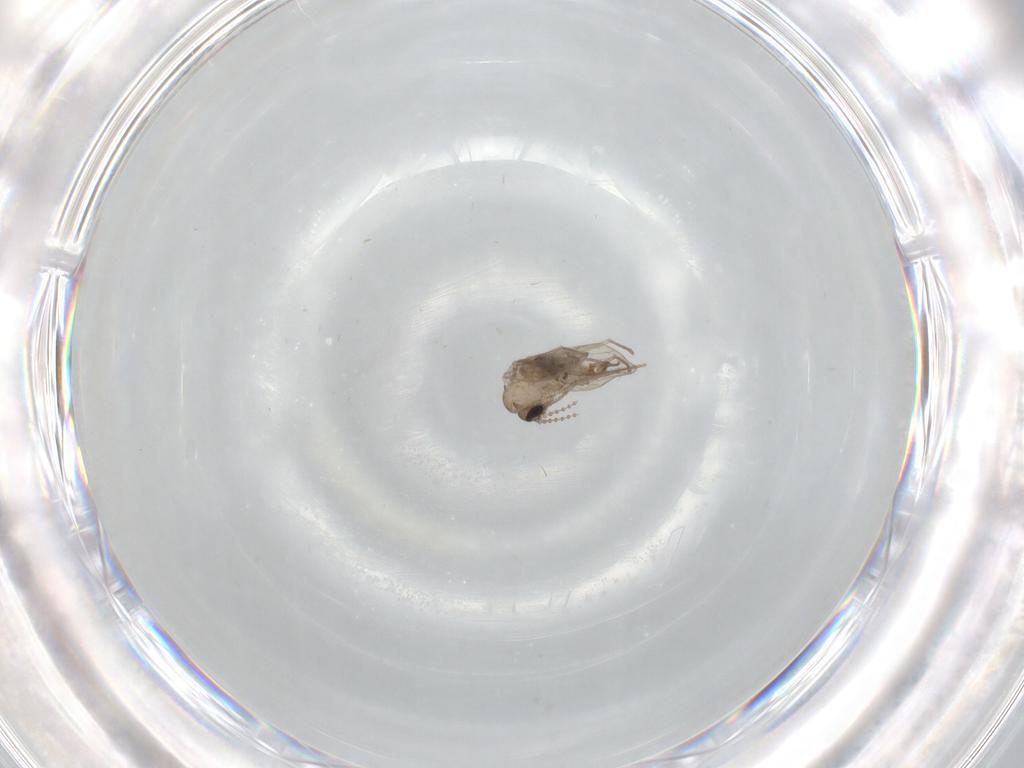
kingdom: Animalia
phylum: Arthropoda
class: Insecta
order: Diptera
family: Psychodidae
